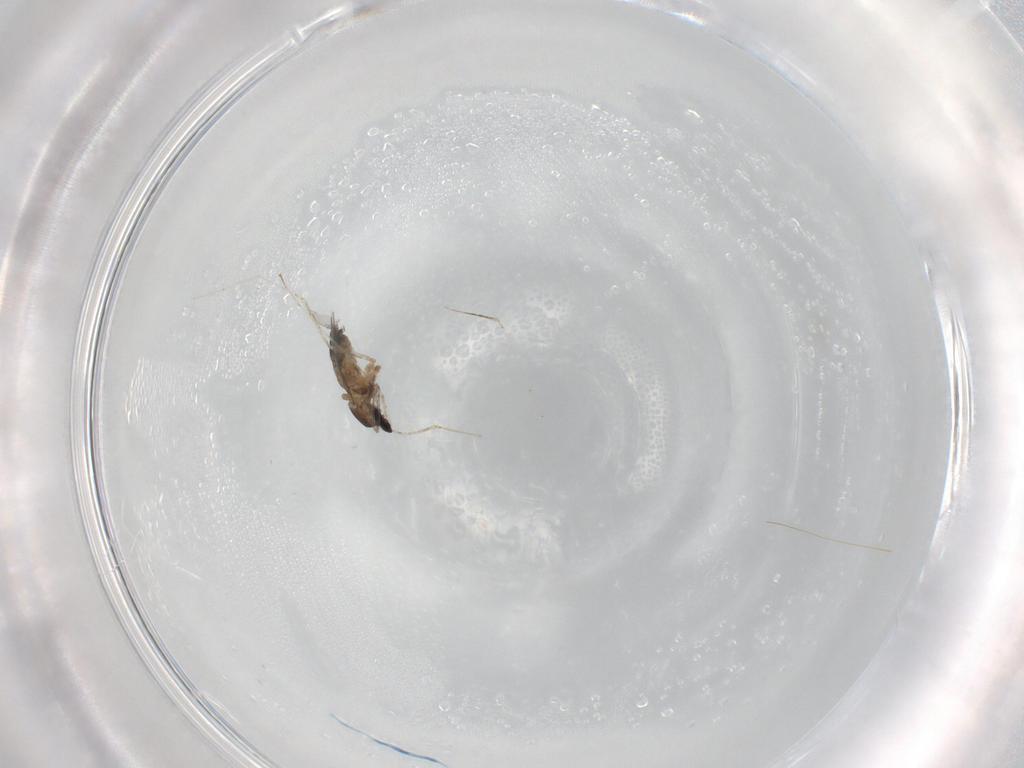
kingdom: Animalia
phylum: Arthropoda
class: Insecta
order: Diptera
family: Cecidomyiidae
